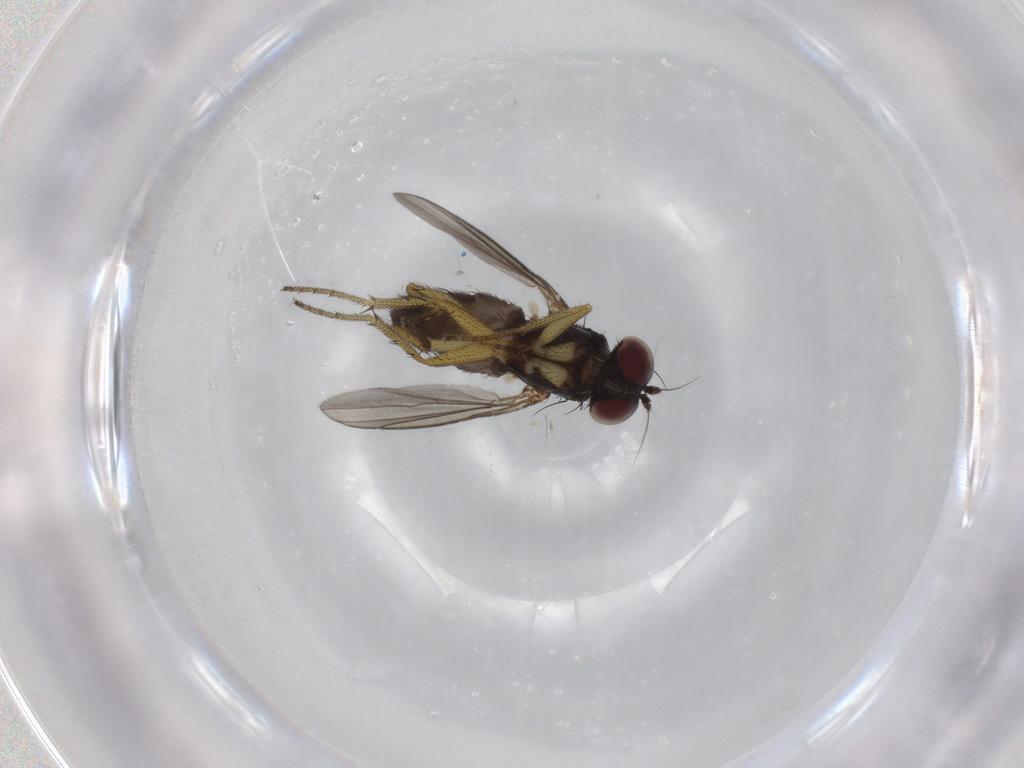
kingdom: Animalia
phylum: Arthropoda
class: Insecta
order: Diptera
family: Dolichopodidae
